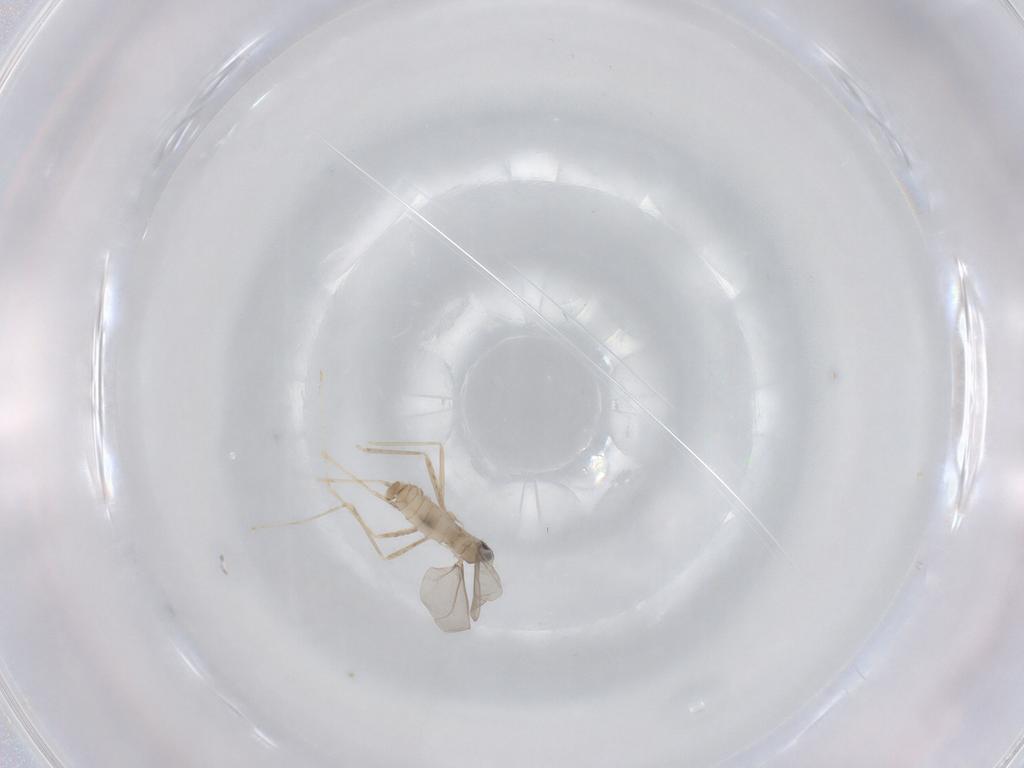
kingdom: Animalia
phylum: Arthropoda
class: Insecta
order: Diptera
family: Cecidomyiidae
